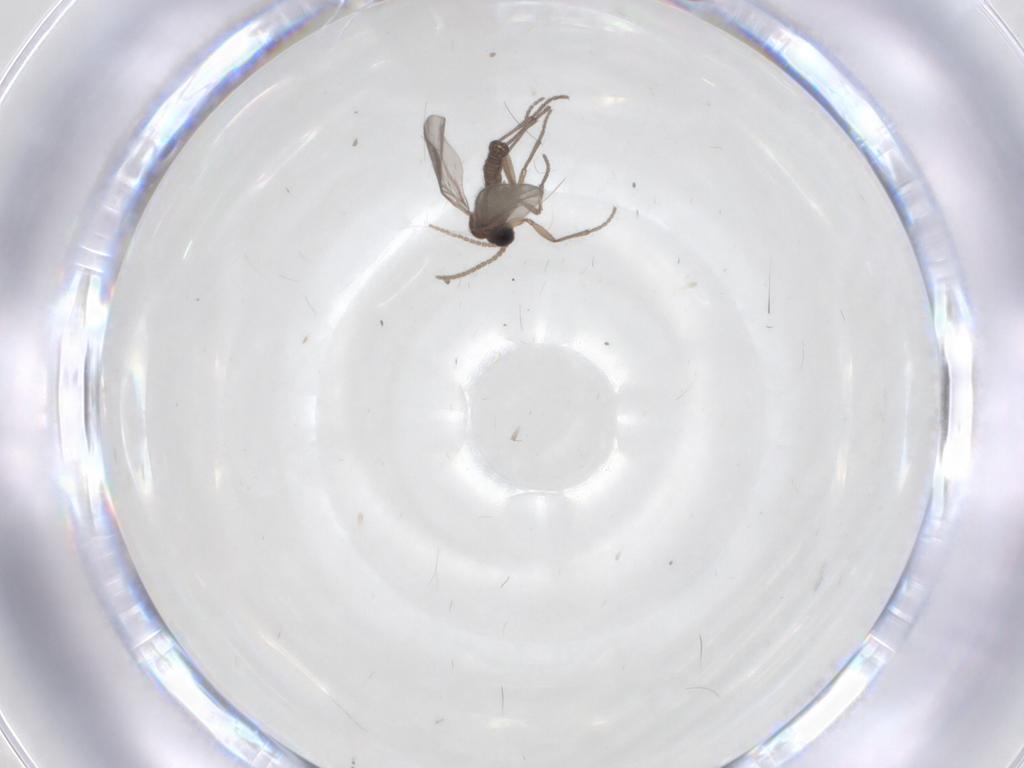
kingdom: Animalia
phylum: Arthropoda
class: Insecta
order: Diptera
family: Sciaridae
